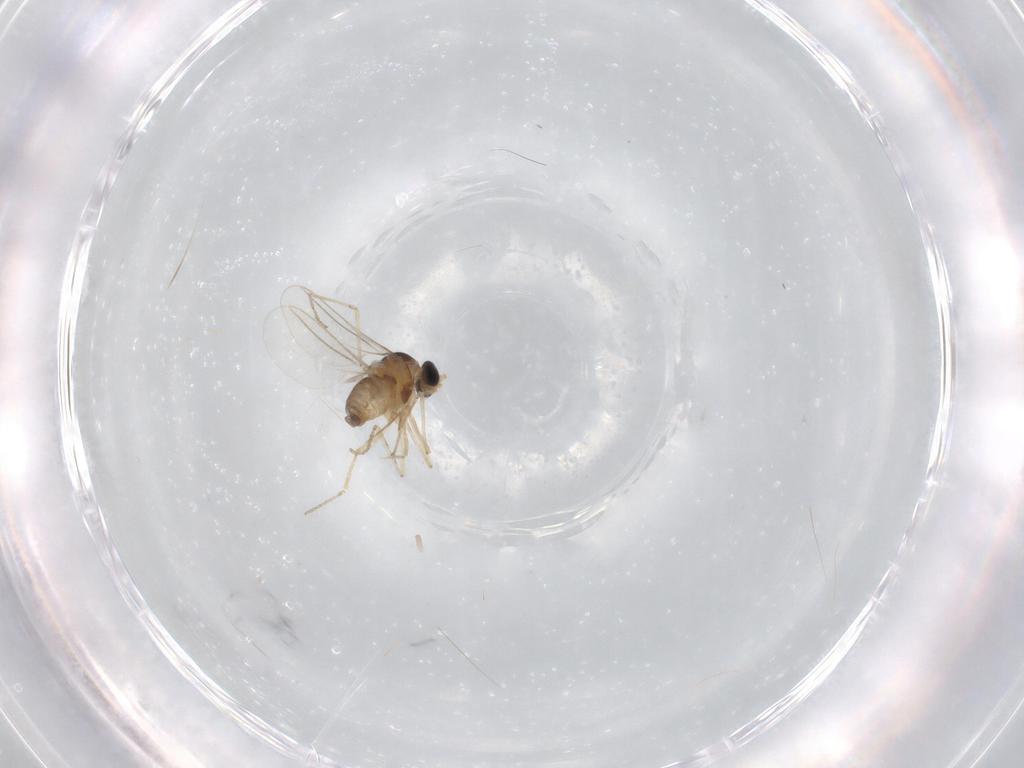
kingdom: Animalia
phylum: Arthropoda
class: Insecta
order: Diptera
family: Cecidomyiidae
